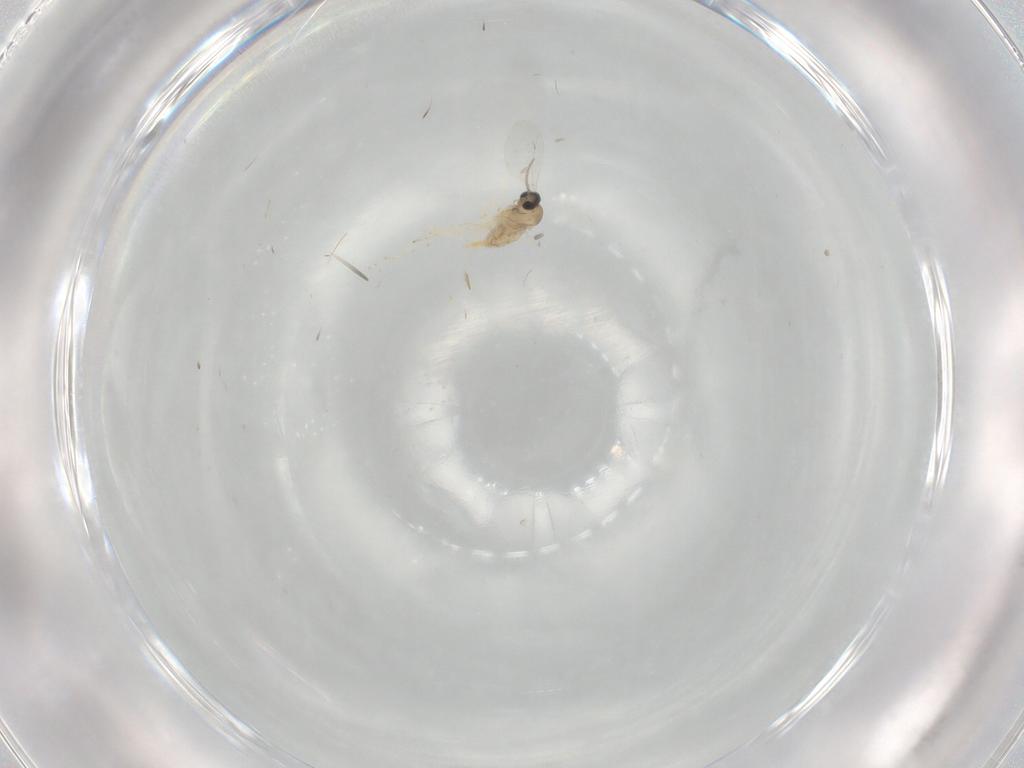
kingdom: Animalia
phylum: Arthropoda
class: Insecta
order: Diptera
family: Cecidomyiidae
